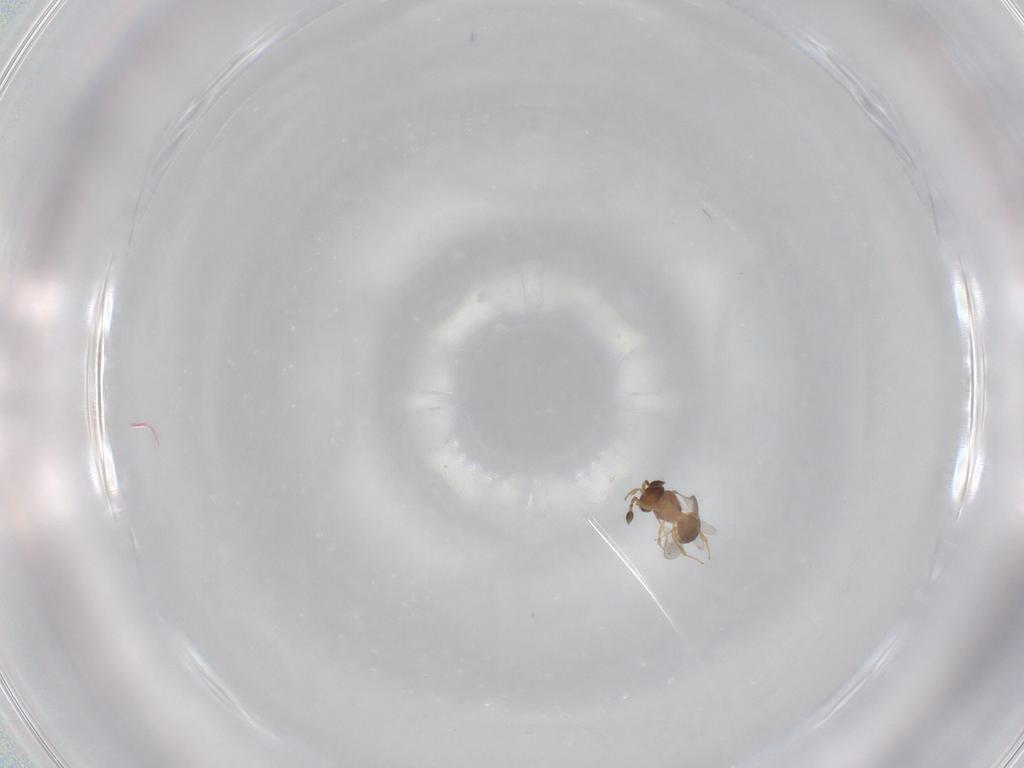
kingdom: Animalia
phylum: Arthropoda
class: Insecta
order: Hymenoptera
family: Scelionidae
